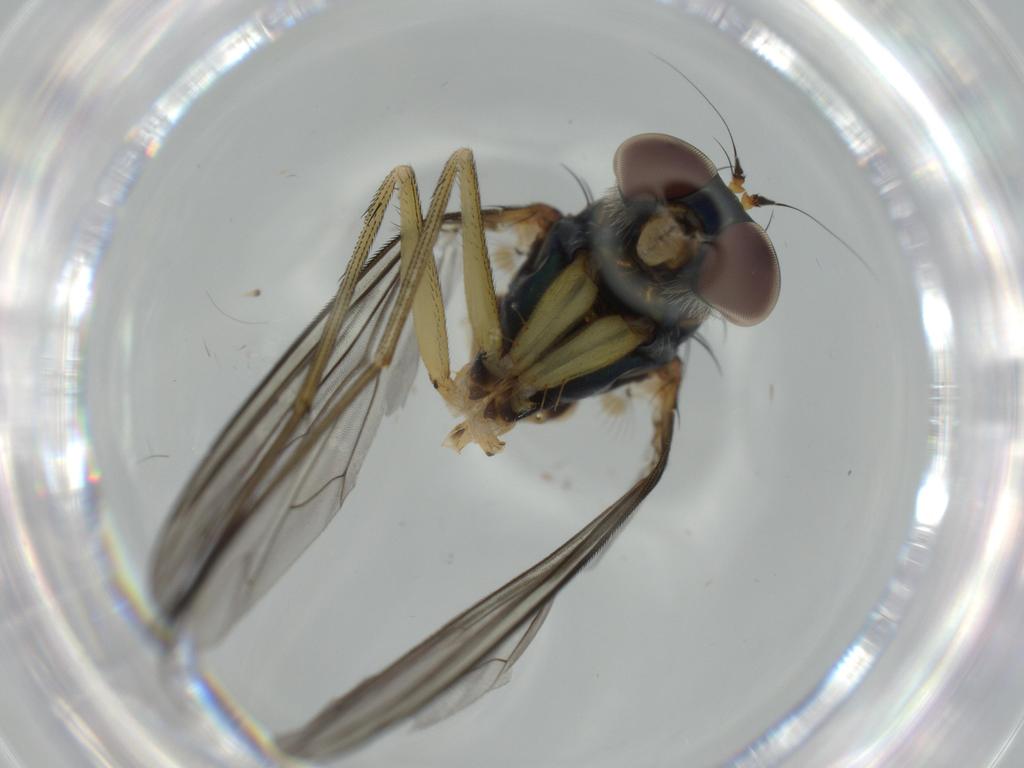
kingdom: Animalia
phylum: Arthropoda
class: Insecta
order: Diptera
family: Dolichopodidae
